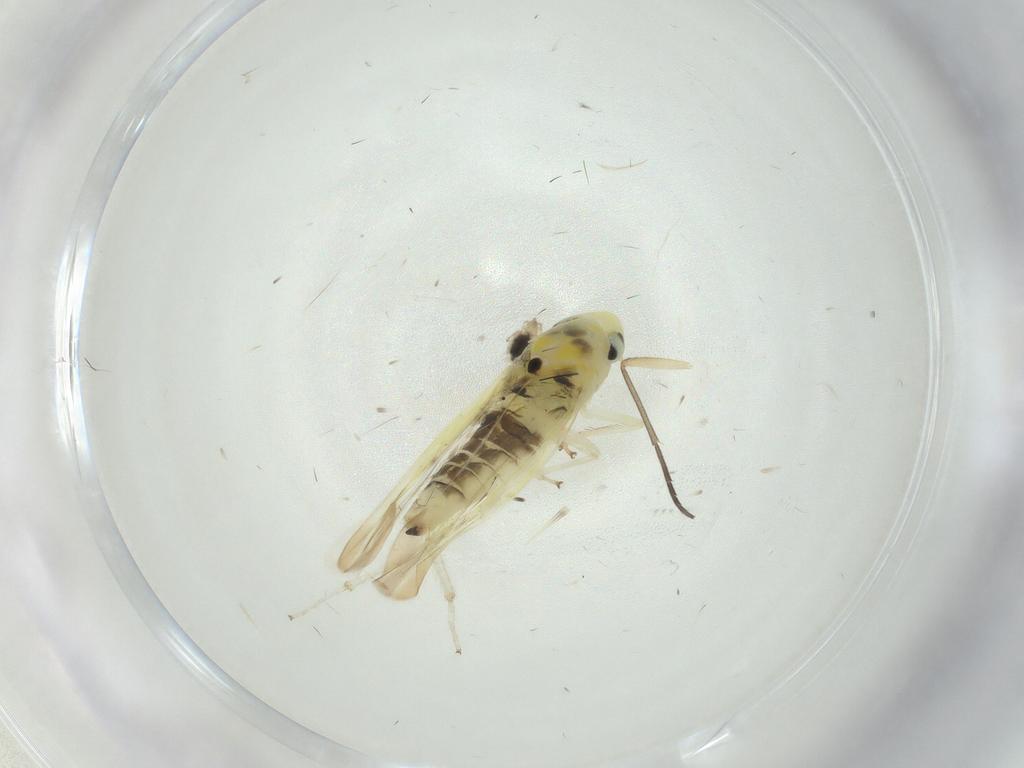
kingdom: Animalia
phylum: Arthropoda
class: Insecta
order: Hemiptera
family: Cicadellidae
